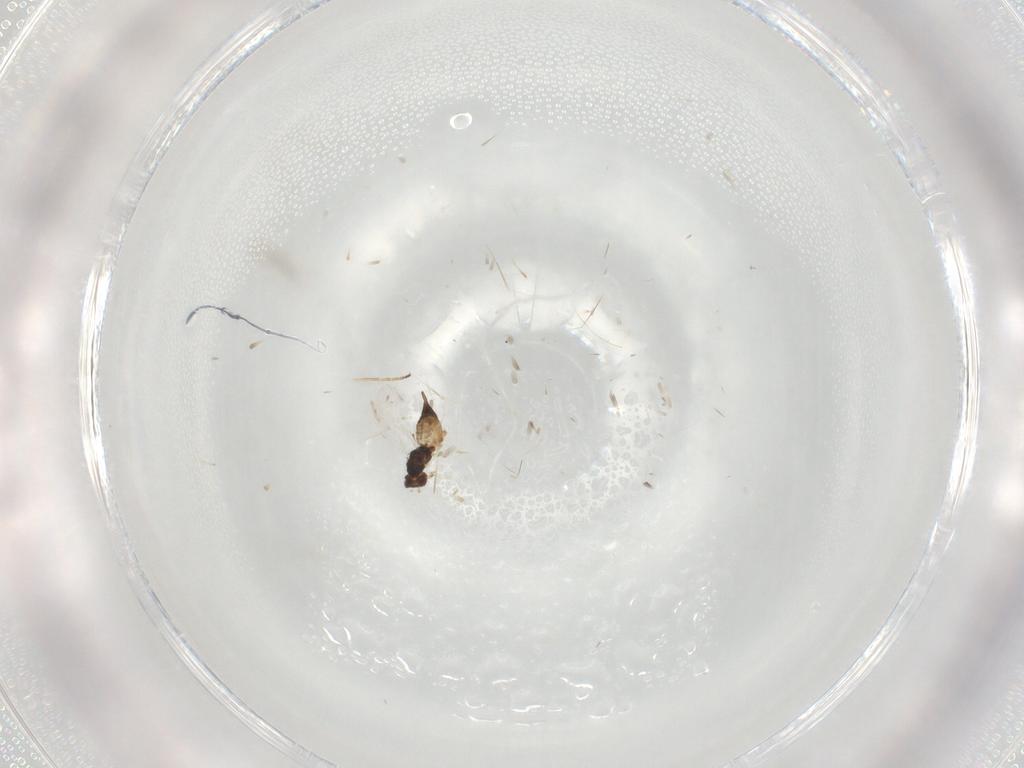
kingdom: Animalia
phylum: Arthropoda
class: Insecta
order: Hymenoptera
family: Eulophidae
